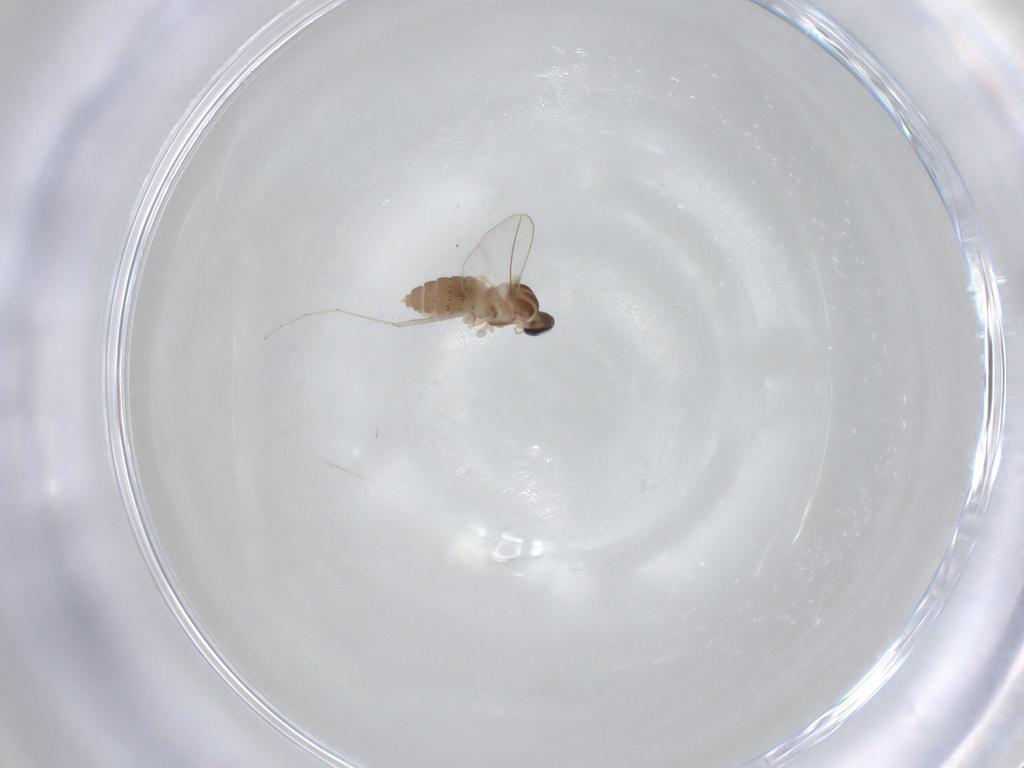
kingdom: Animalia
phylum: Arthropoda
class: Insecta
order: Diptera
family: Cecidomyiidae
